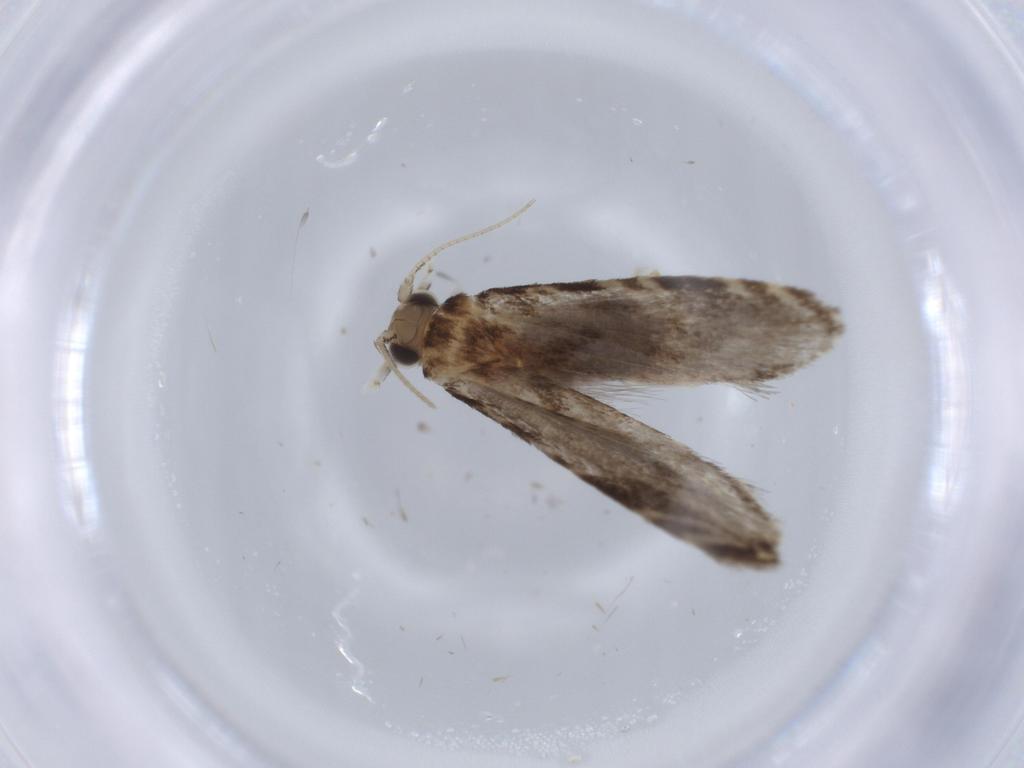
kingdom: Animalia
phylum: Arthropoda
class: Insecta
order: Lepidoptera
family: Tineidae
